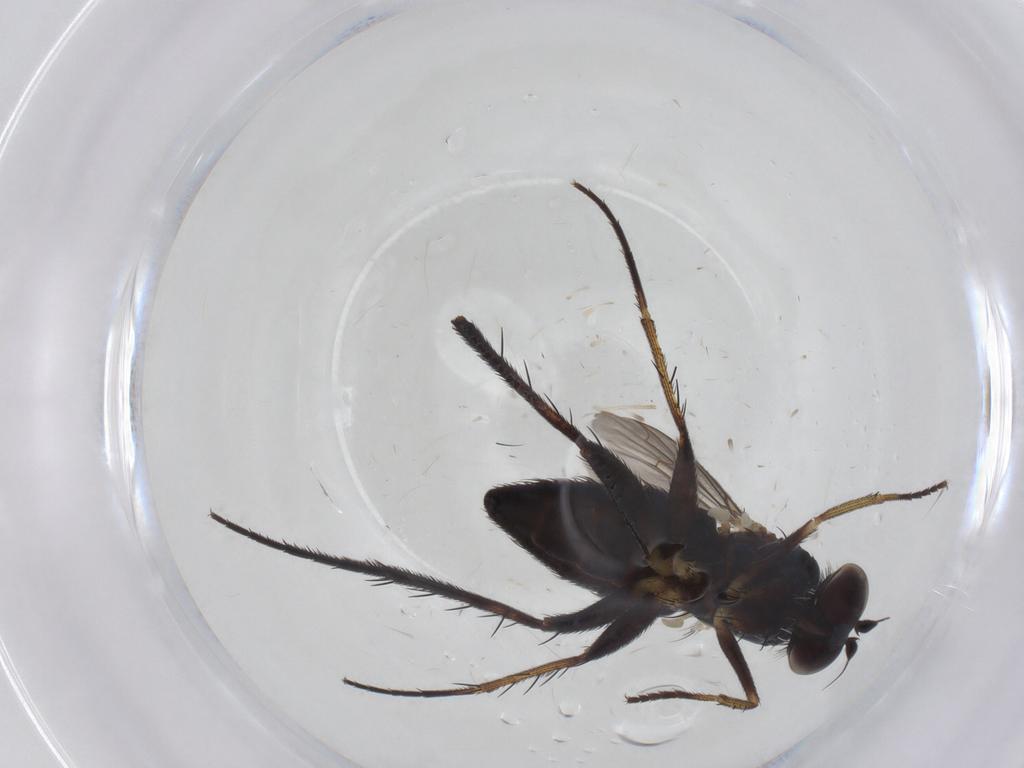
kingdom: Animalia
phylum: Arthropoda
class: Insecta
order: Diptera
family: Dolichopodidae
